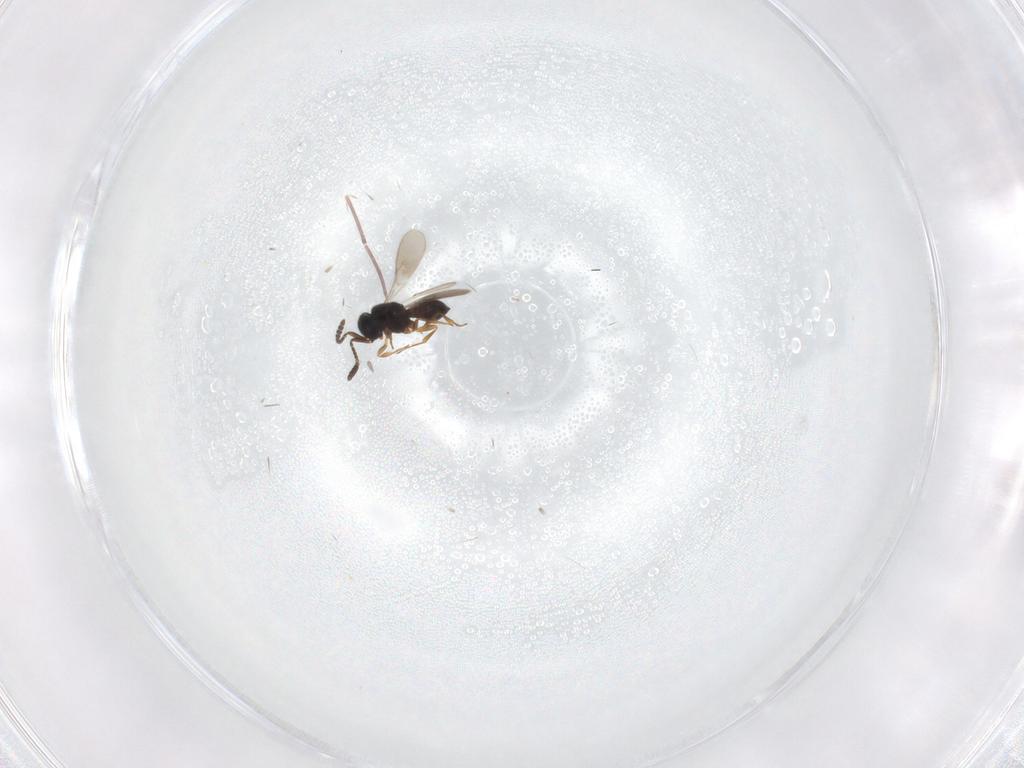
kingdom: Animalia
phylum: Arthropoda
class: Insecta
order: Hymenoptera
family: Scelionidae
